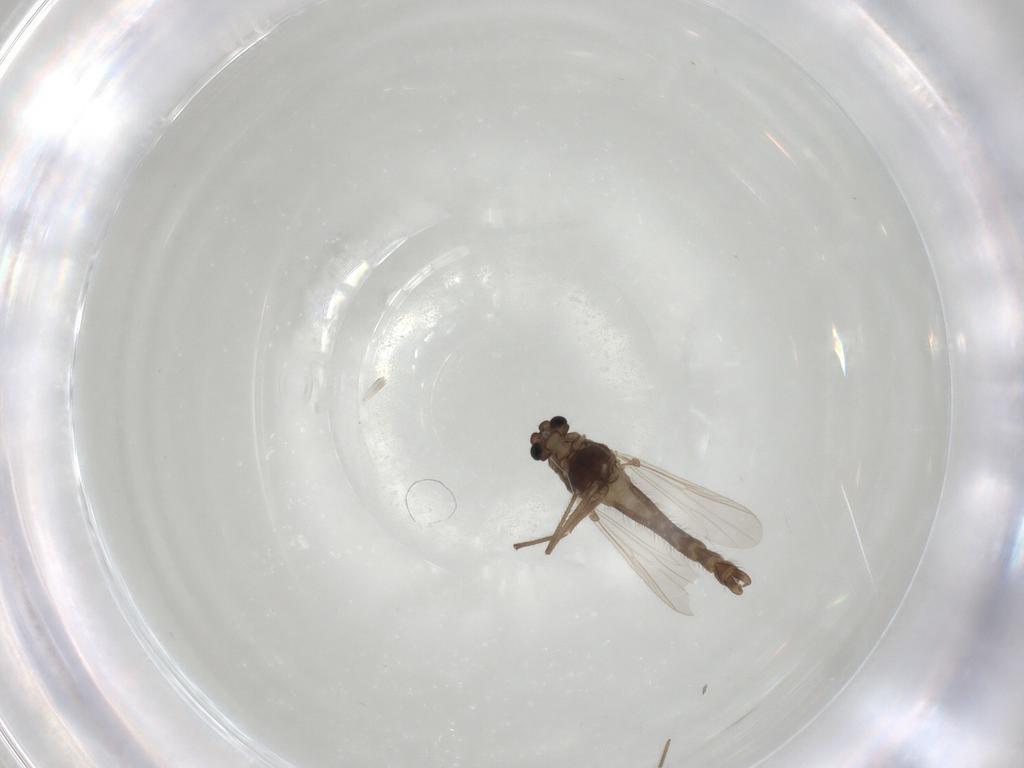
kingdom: Animalia
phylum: Arthropoda
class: Insecta
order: Diptera
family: Chironomidae
